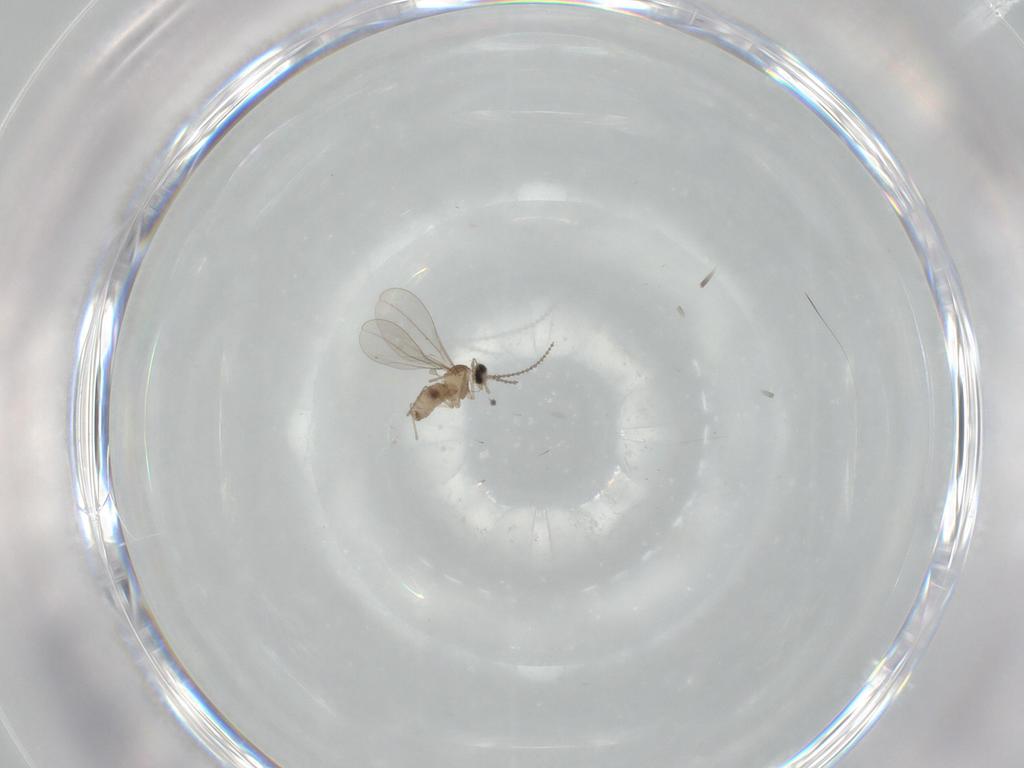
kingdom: Animalia
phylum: Arthropoda
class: Insecta
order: Diptera
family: Cecidomyiidae
